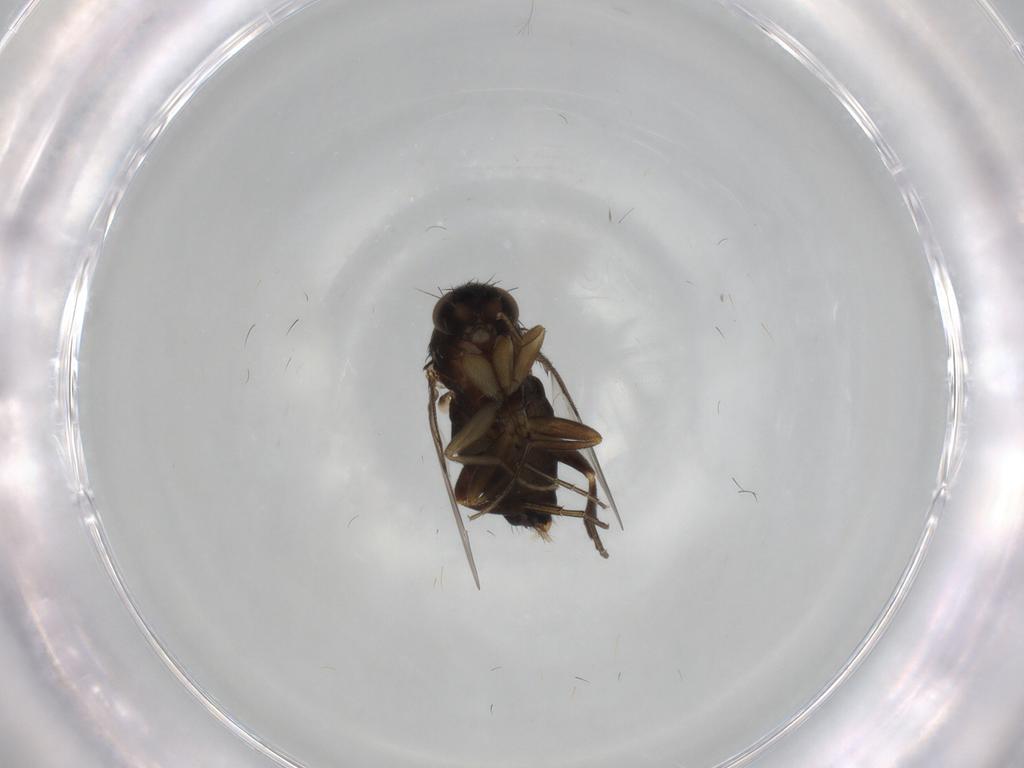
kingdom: Animalia
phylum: Arthropoda
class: Insecta
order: Diptera
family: Phoridae
